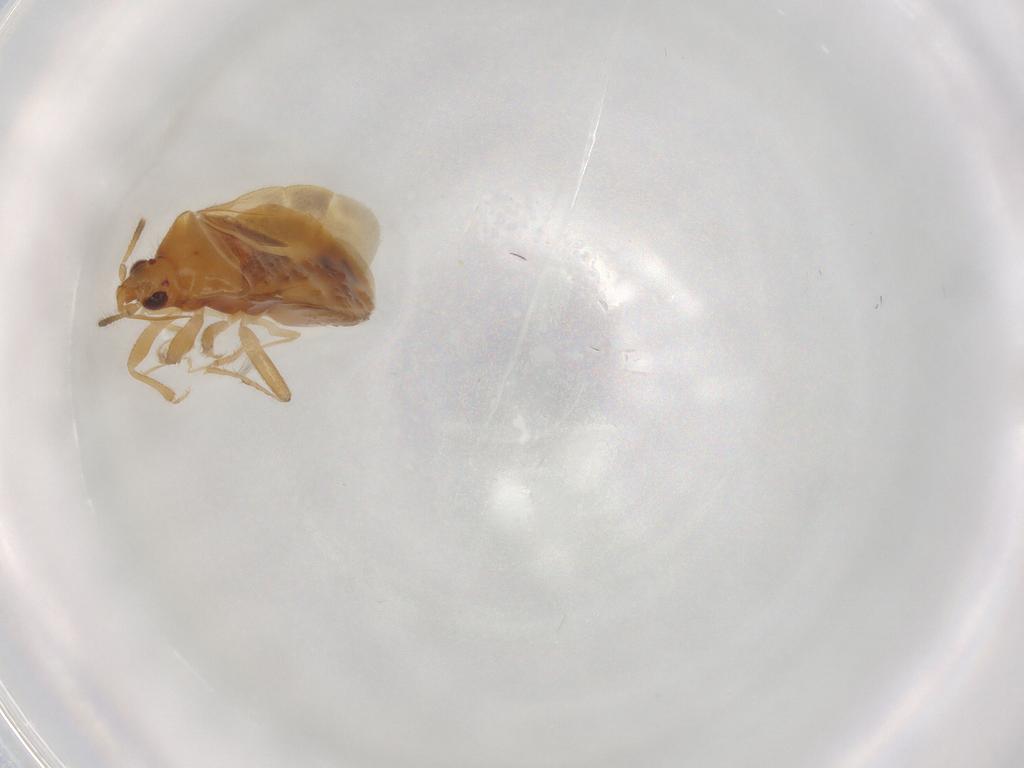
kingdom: Animalia
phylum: Arthropoda
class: Insecta
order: Hemiptera
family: Lasiochilidae
